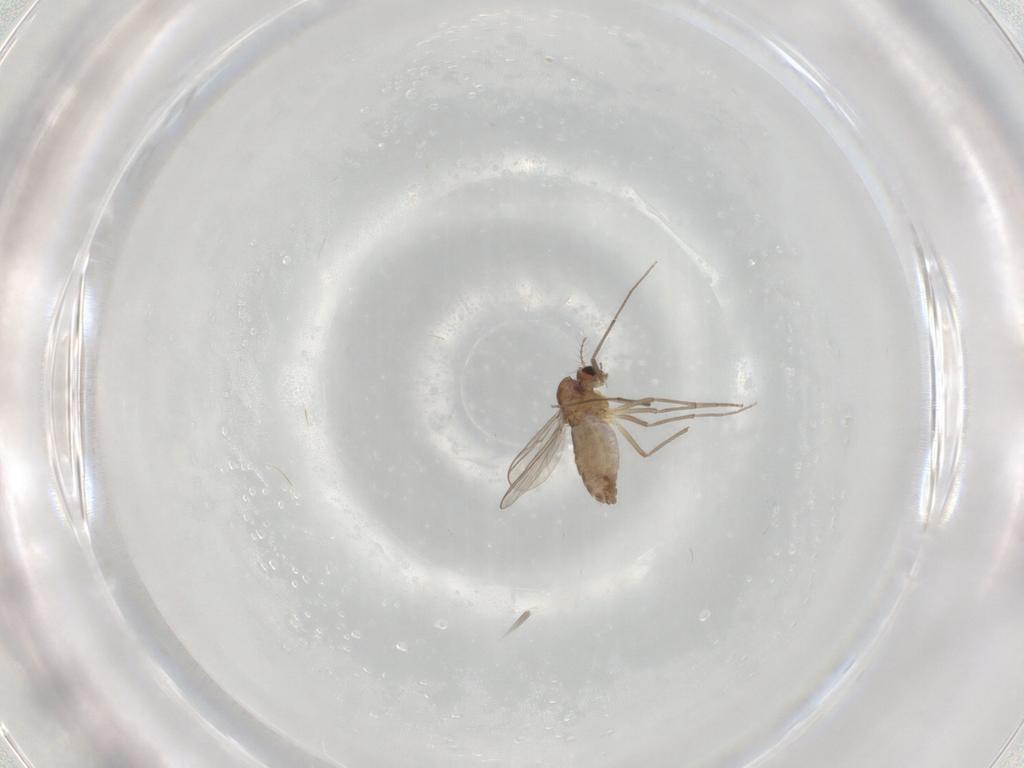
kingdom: Animalia
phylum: Arthropoda
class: Insecta
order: Diptera
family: Chironomidae
